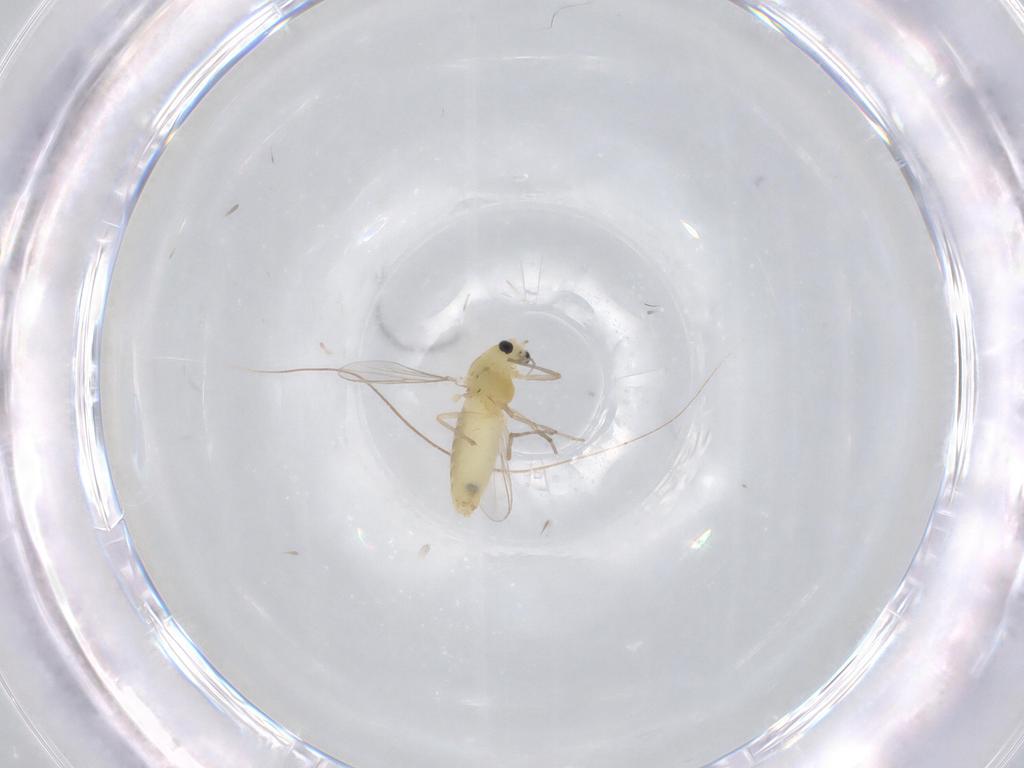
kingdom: Animalia
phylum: Arthropoda
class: Insecta
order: Diptera
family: Chironomidae
